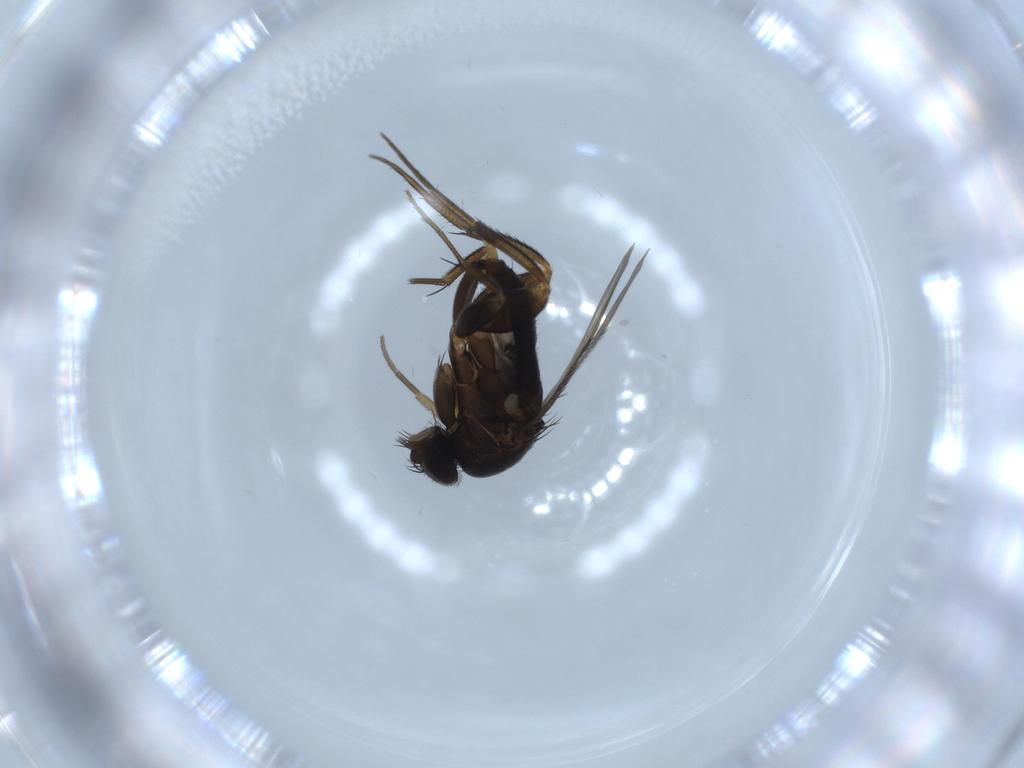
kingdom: Animalia
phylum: Arthropoda
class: Insecta
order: Diptera
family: Phoridae
